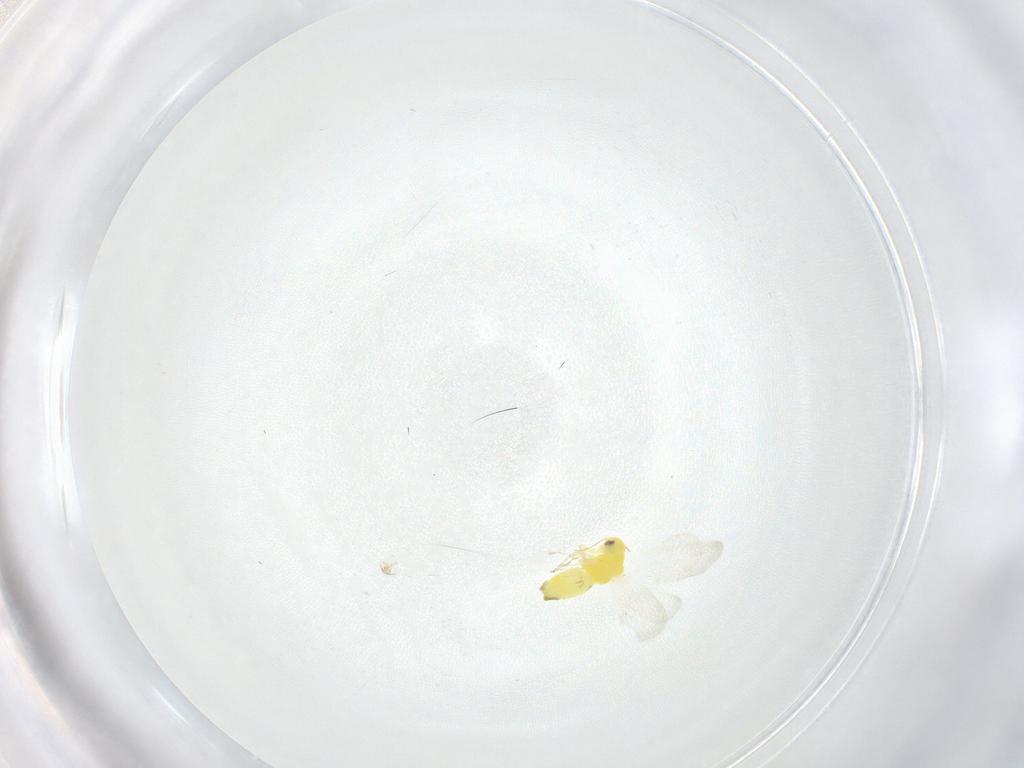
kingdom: Animalia
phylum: Arthropoda
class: Insecta
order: Hemiptera
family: Aleyrodidae
